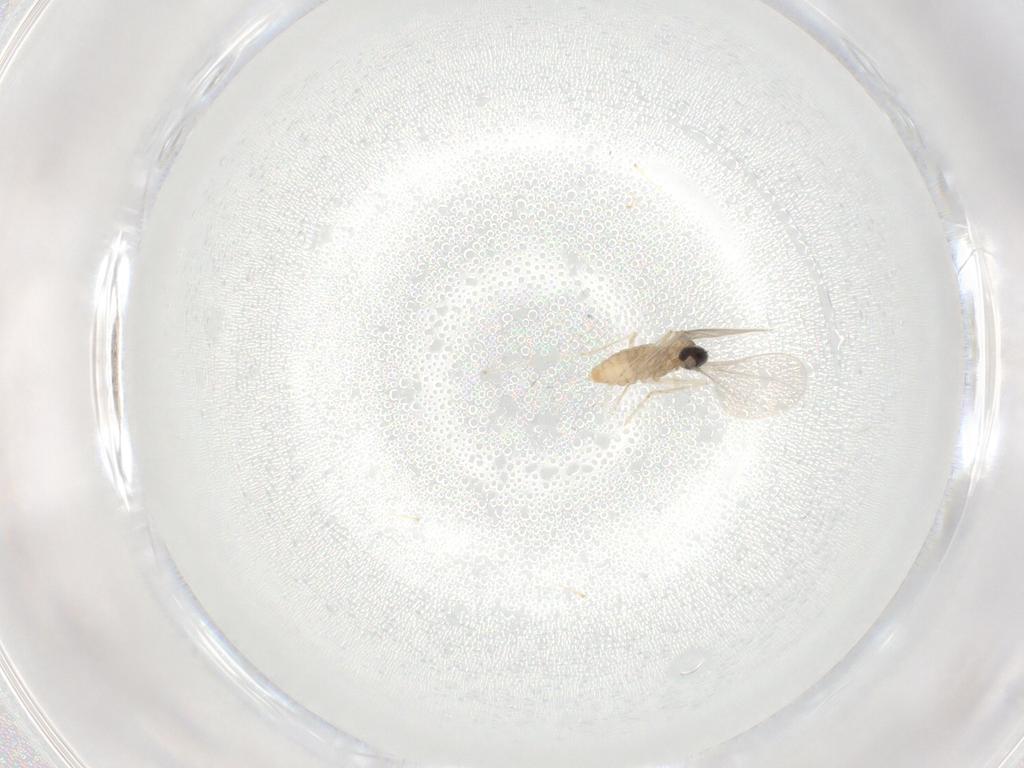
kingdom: Animalia
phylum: Arthropoda
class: Insecta
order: Diptera
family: Cecidomyiidae
